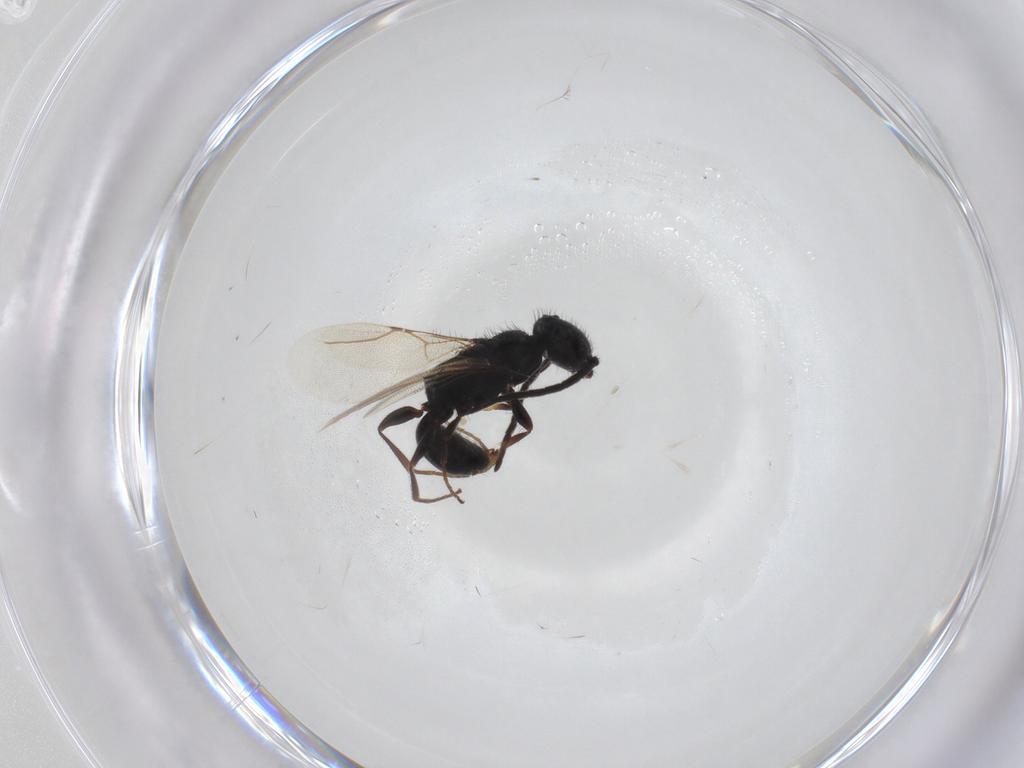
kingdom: Animalia
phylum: Arthropoda
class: Insecta
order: Hymenoptera
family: Bethylidae
